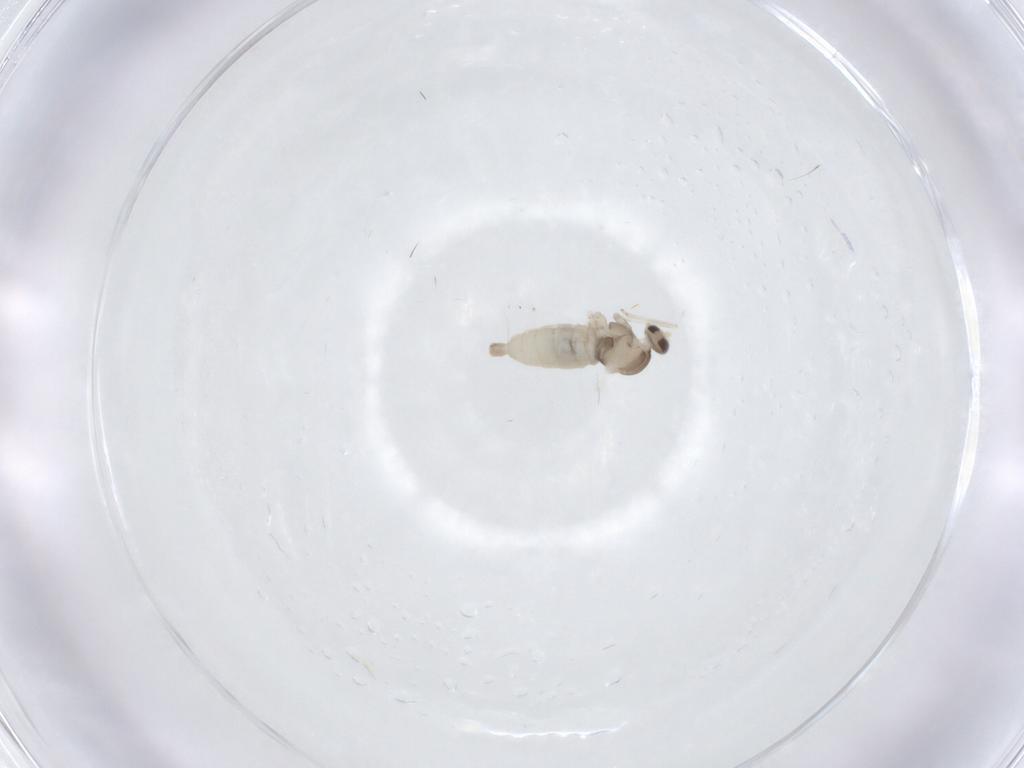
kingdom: Animalia
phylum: Arthropoda
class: Insecta
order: Diptera
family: Cecidomyiidae
